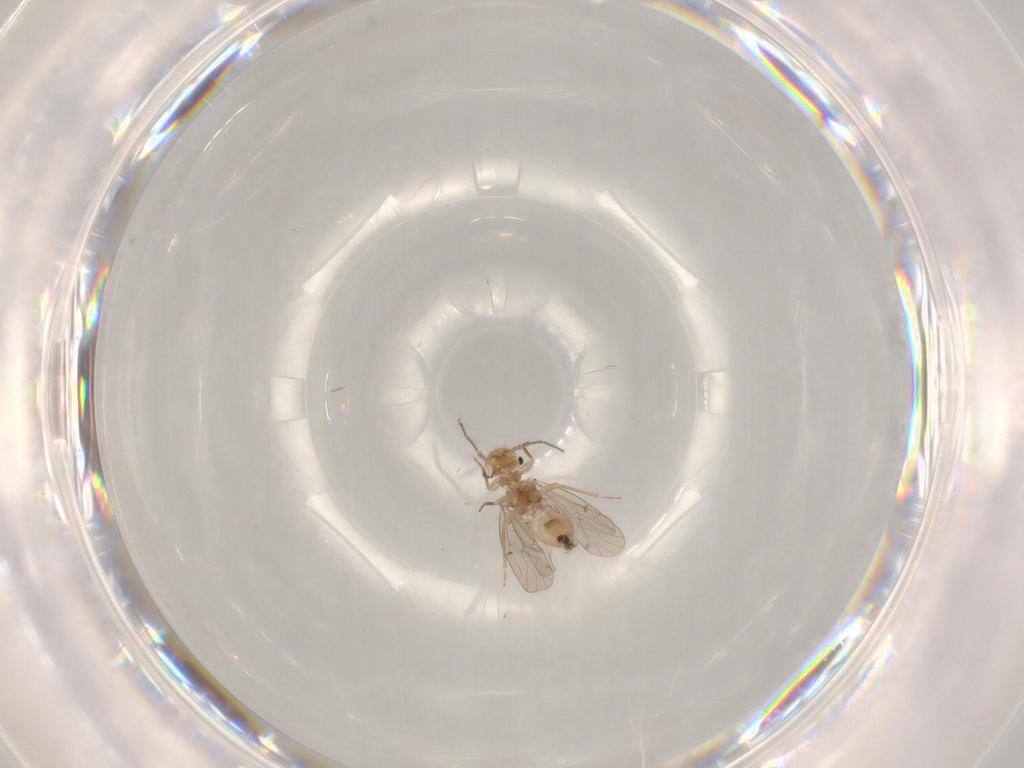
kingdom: Animalia
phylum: Arthropoda
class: Insecta
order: Psocodea
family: Ectopsocidae
